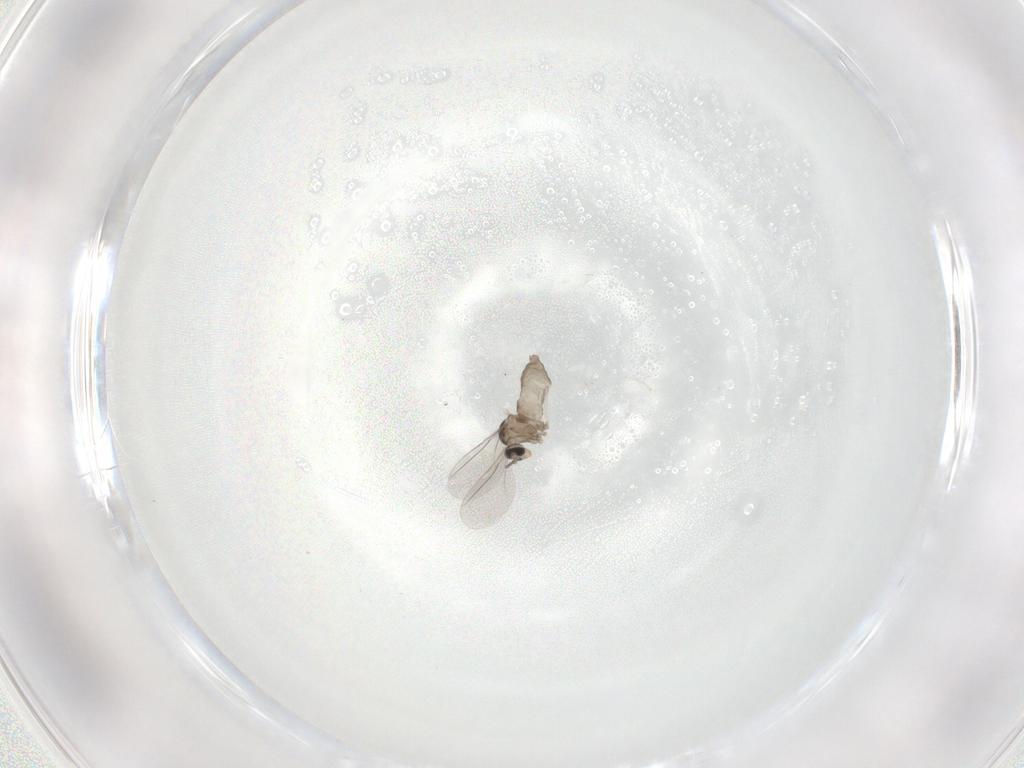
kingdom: Animalia
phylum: Arthropoda
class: Insecta
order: Diptera
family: Cecidomyiidae
